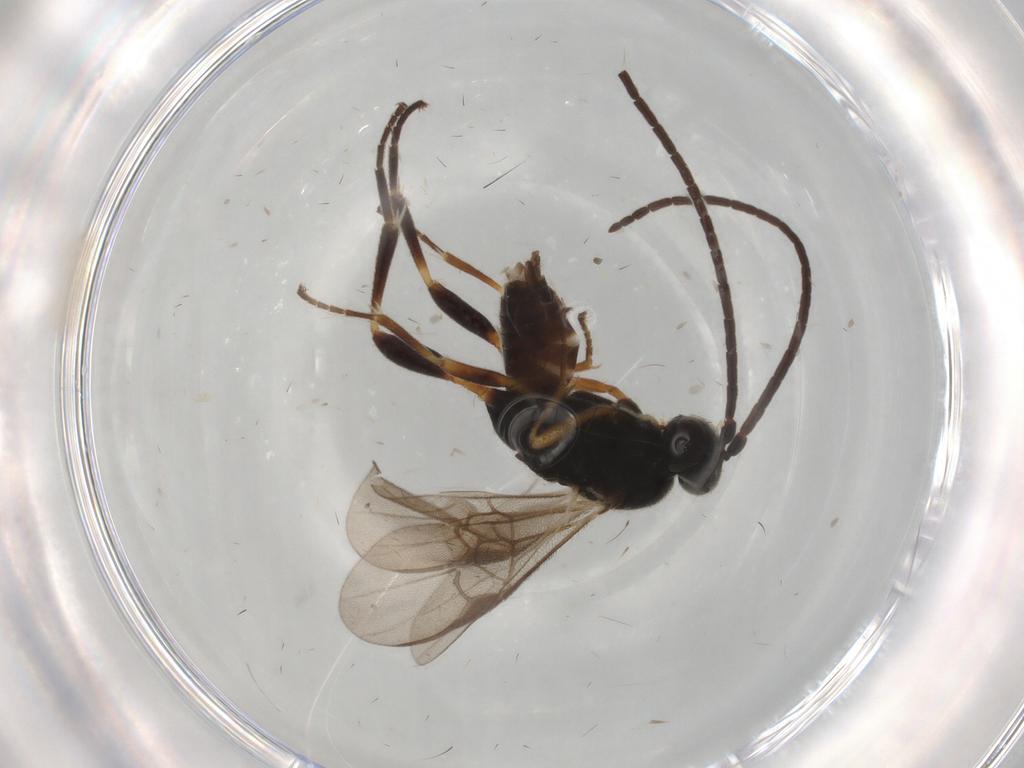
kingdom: Animalia
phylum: Arthropoda
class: Insecta
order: Hymenoptera
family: Braconidae
